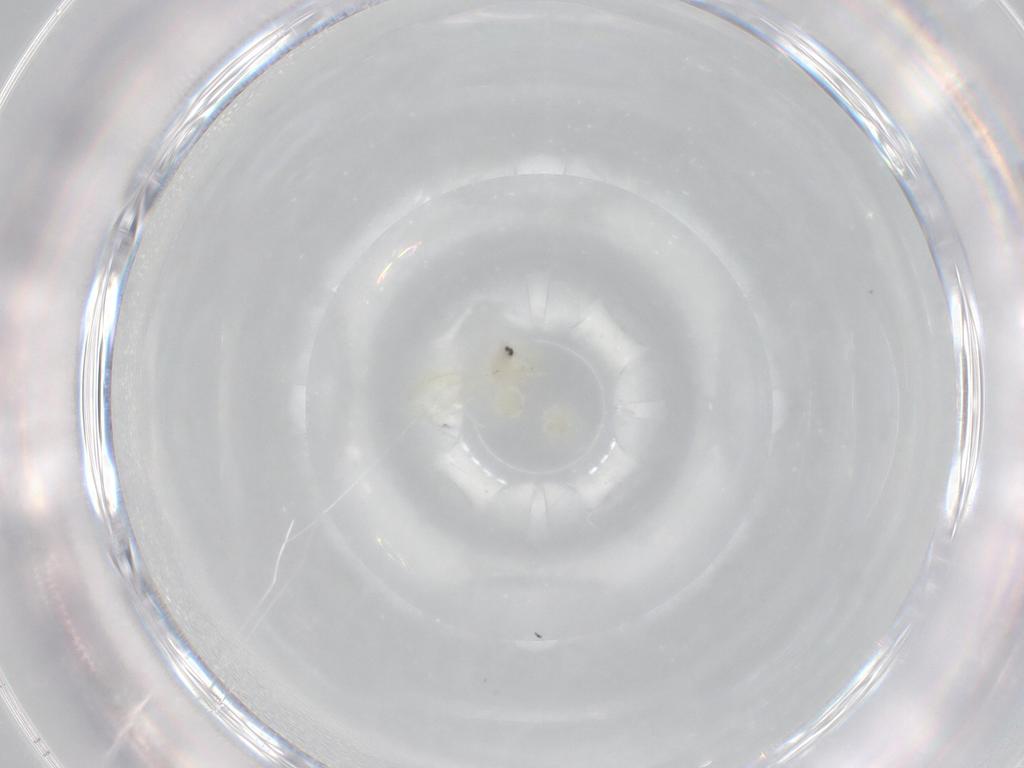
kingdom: Animalia
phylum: Arthropoda
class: Insecta
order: Hemiptera
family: Aleyrodidae
